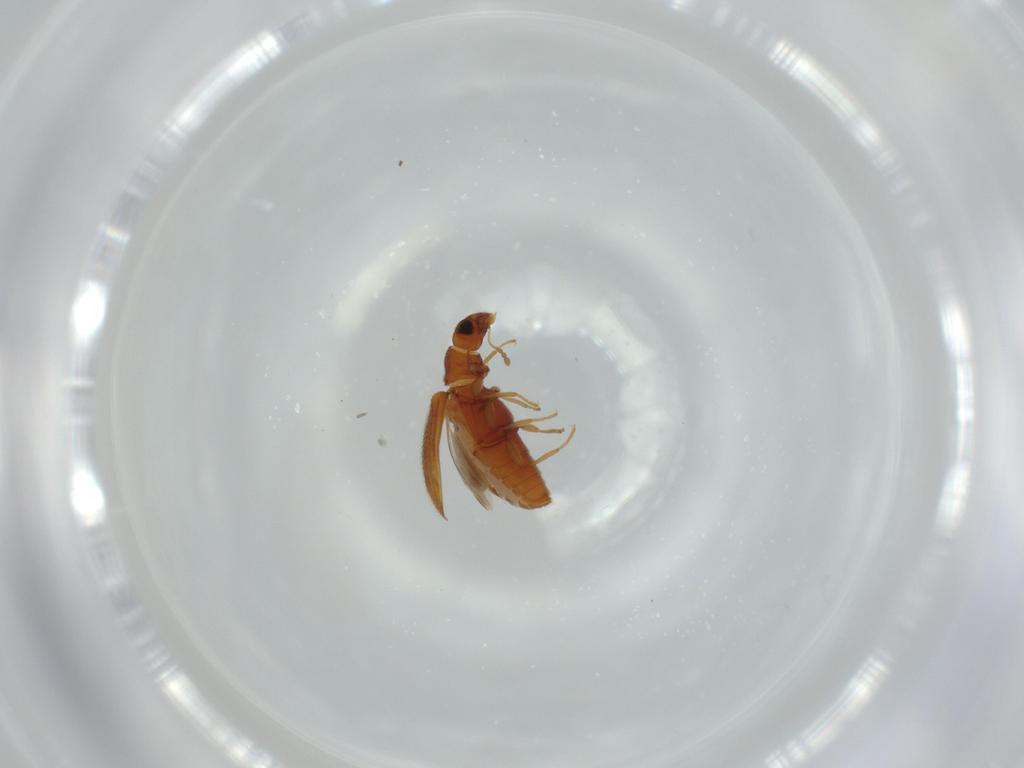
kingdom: Animalia
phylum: Arthropoda
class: Insecta
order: Coleoptera
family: Latridiidae
